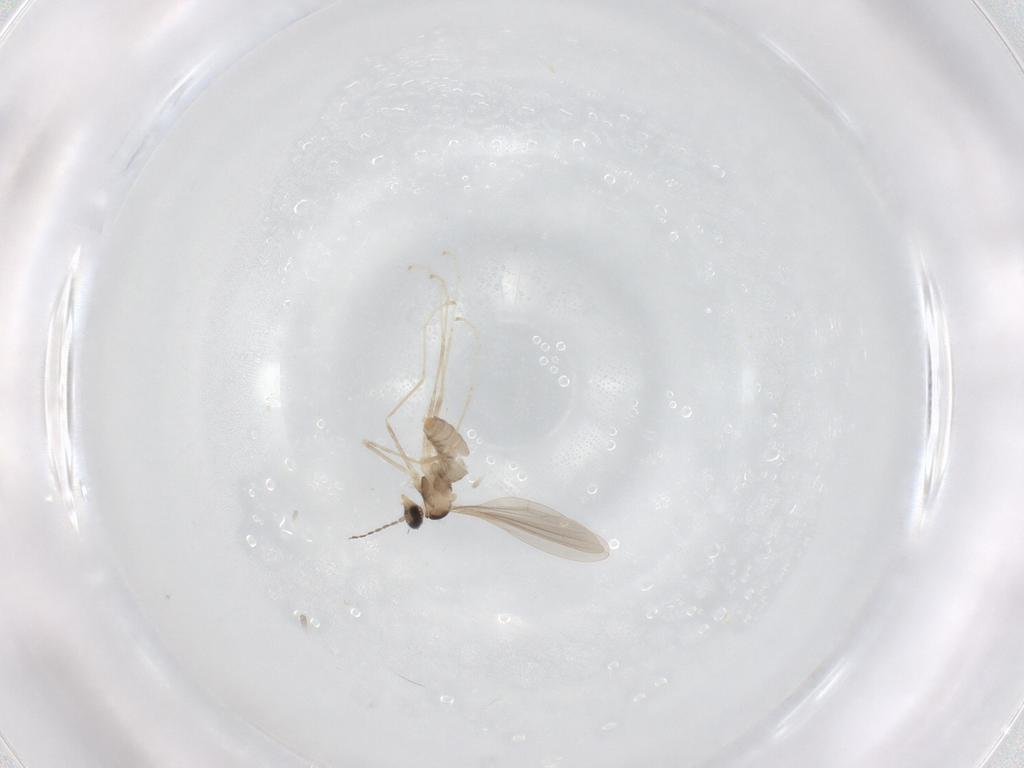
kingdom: Animalia
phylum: Arthropoda
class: Insecta
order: Diptera
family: Cecidomyiidae
